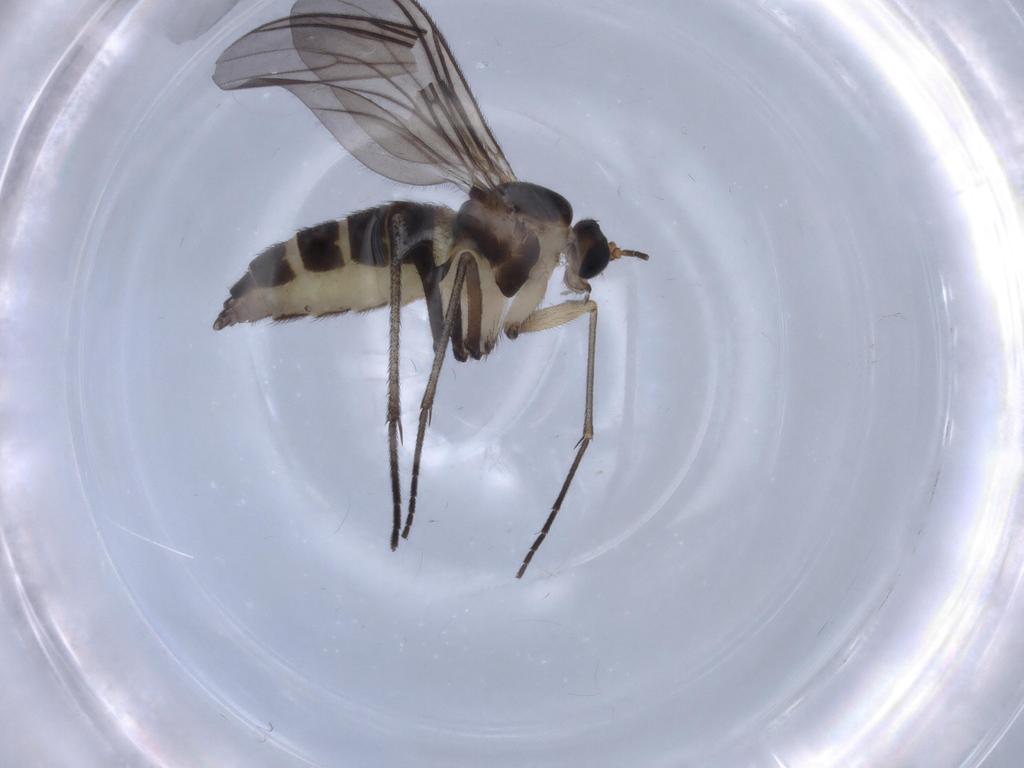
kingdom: Animalia
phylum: Arthropoda
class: Insecta
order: Diptera
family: Sciaridae
